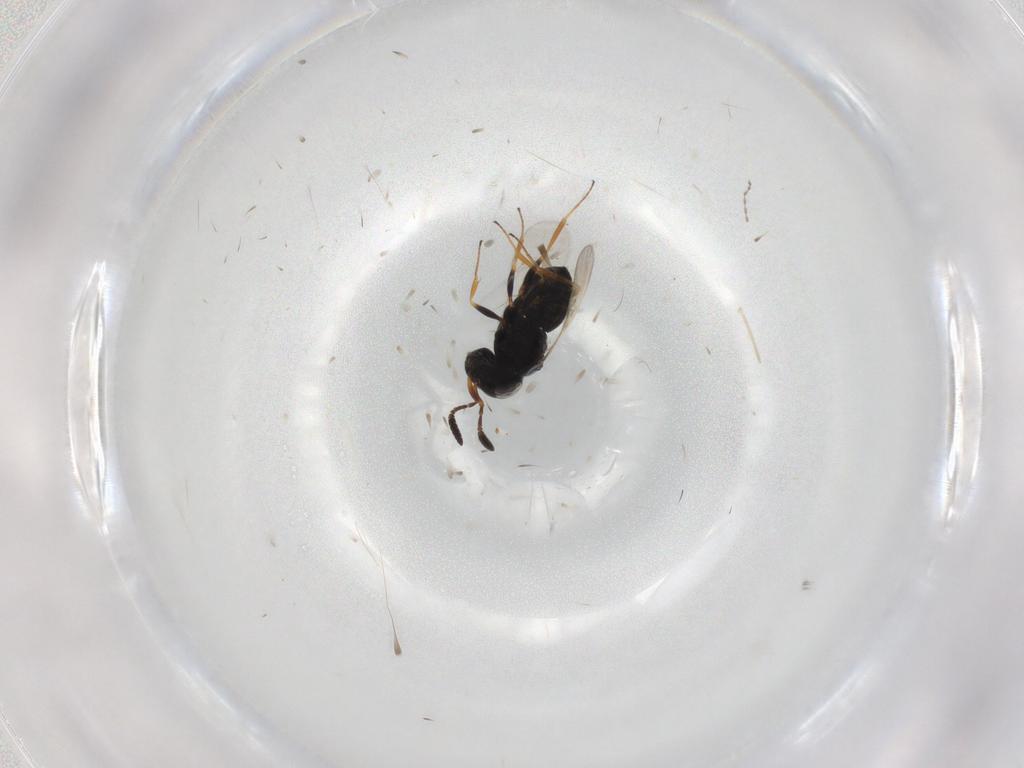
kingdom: Animalia
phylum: Arthropoda
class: Insecta
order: Coleoptera
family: Curculionidae
